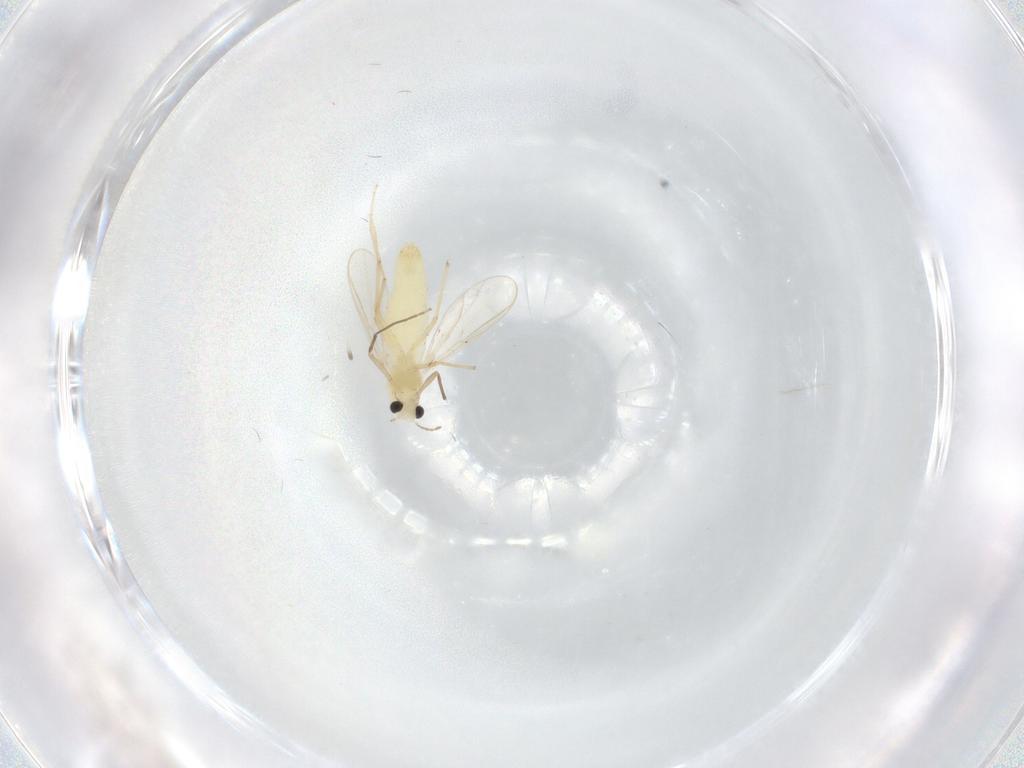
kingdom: Animalia
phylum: Arthropoda
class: Insecta
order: Diptera
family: Chironomidae
